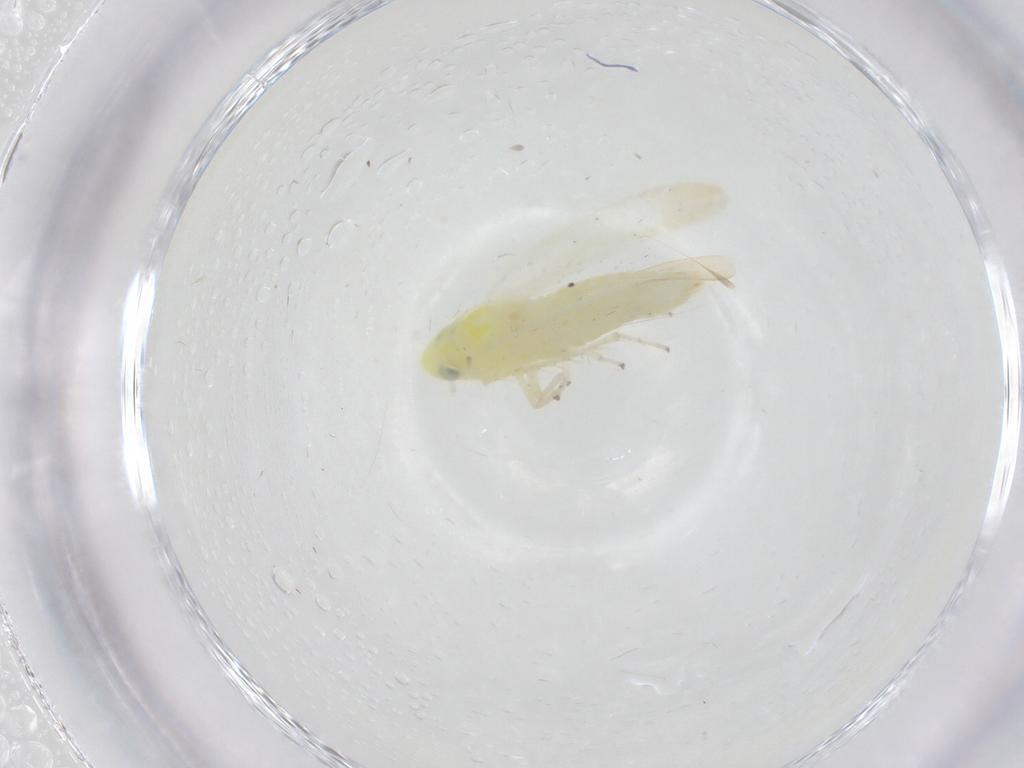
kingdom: Animalia
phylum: Arthropoda
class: Insecta
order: Hemiptera
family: Cicadellidae
